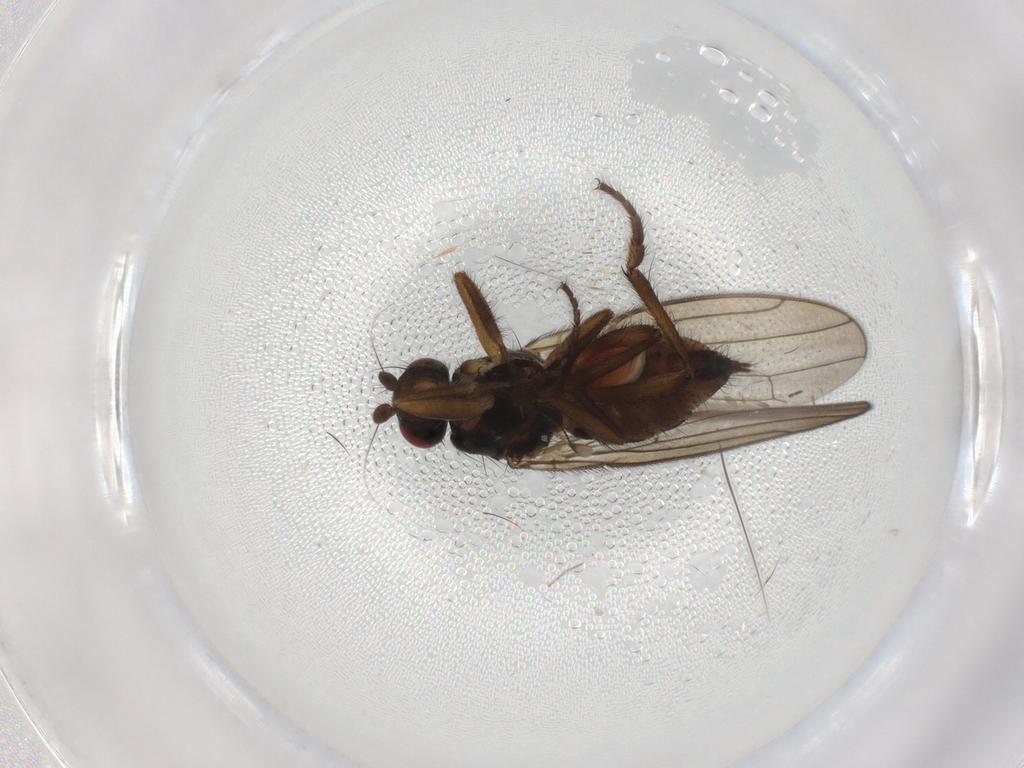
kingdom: Animalia
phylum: Arthropoda
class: Insecta
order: Diptera
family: Sphaeroceridae
